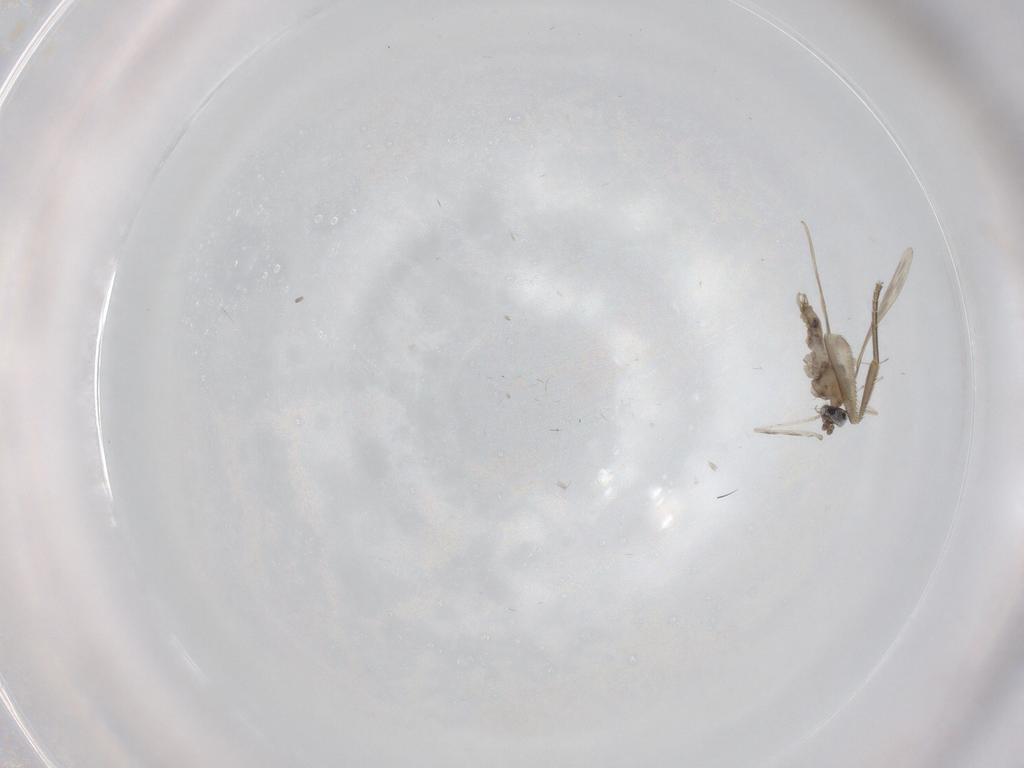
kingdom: Animalia
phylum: Arthropoda
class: Insecta
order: Diptera
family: Cecidomyiidae
